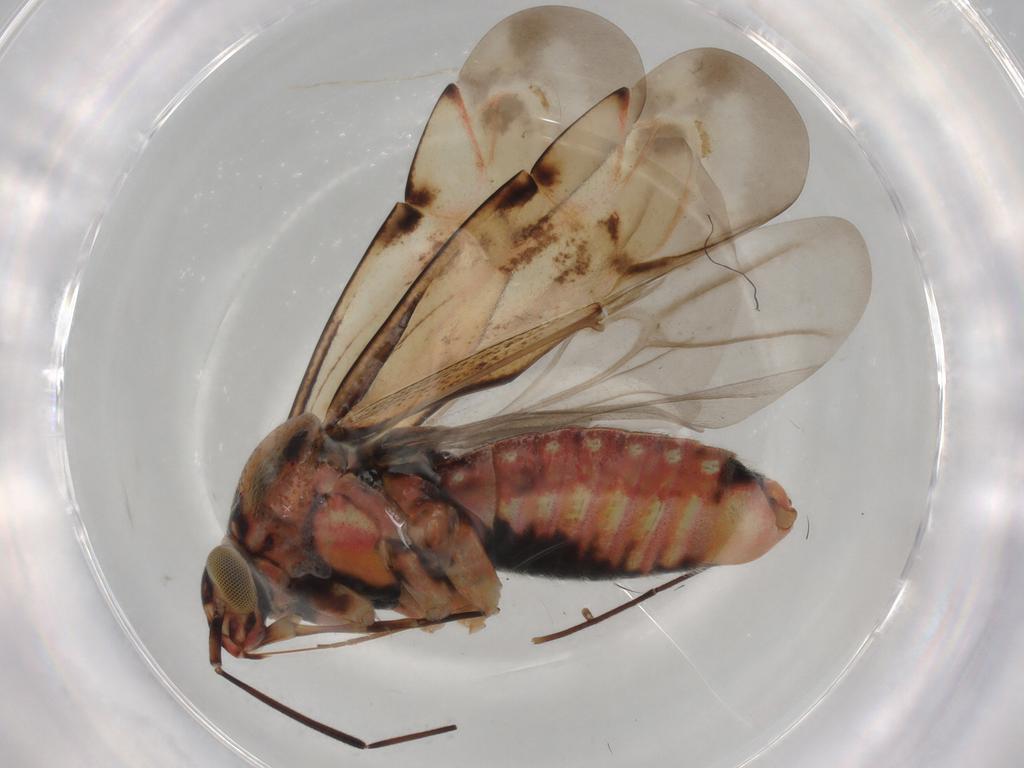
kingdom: Animalia
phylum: Arthropoda
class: Insecta
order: Hemiptera
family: Miridae
